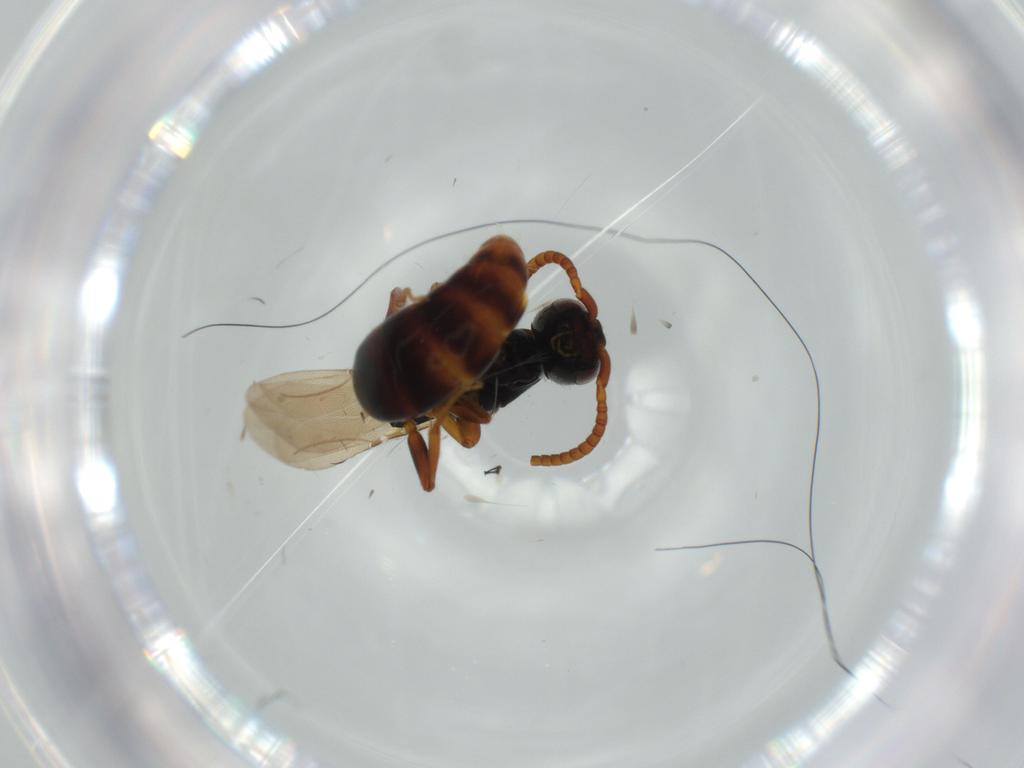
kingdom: Animalia
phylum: Arthropoda
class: Insecta
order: Hymenoptera
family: Bethylidae
